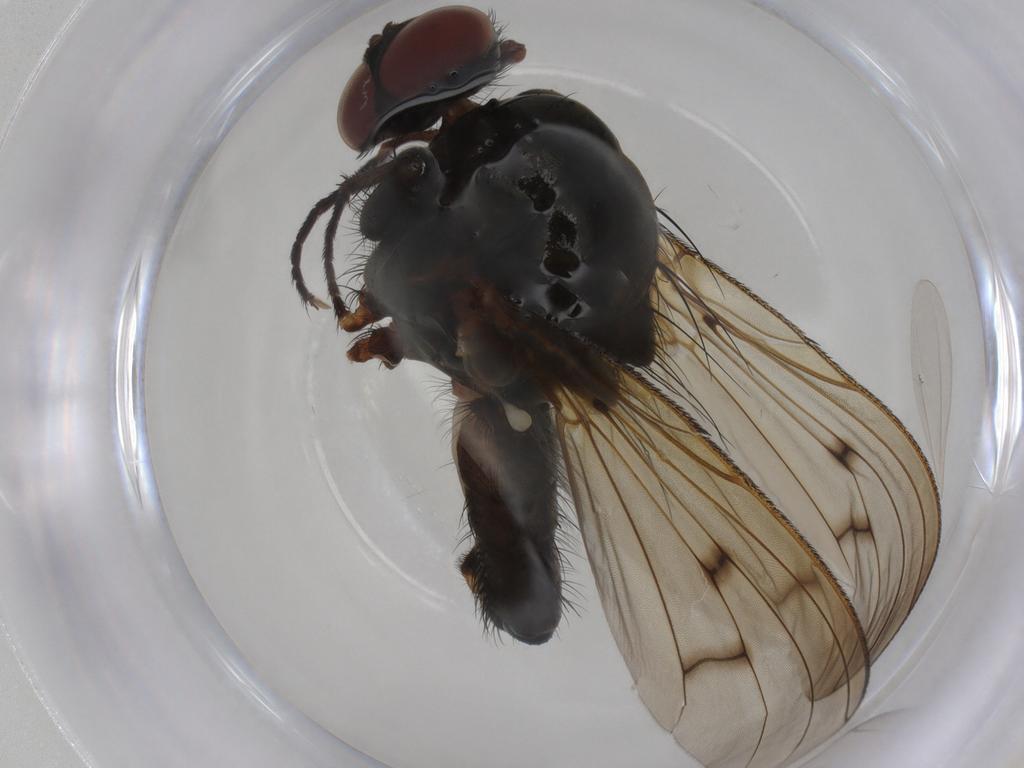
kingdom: Animalia
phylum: Arthropoda
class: Insecta
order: Diptera
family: Anthomyiidae
